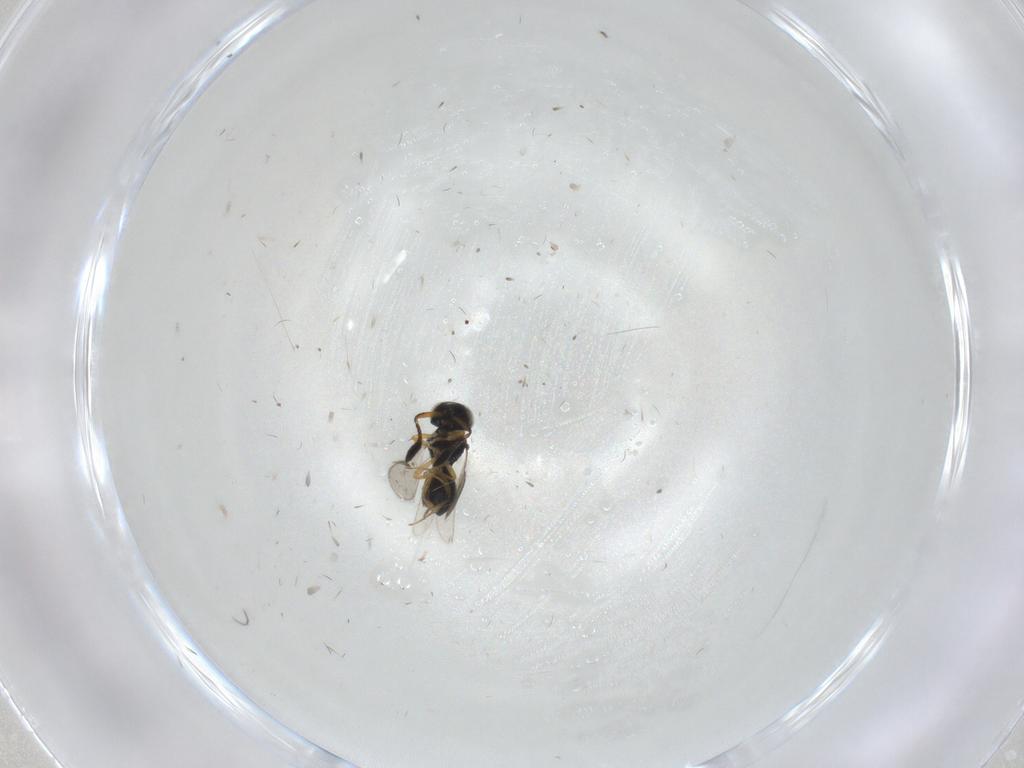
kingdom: Animalia
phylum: Arthropoda
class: Insecta
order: Hymenoptera
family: Scelionidae
